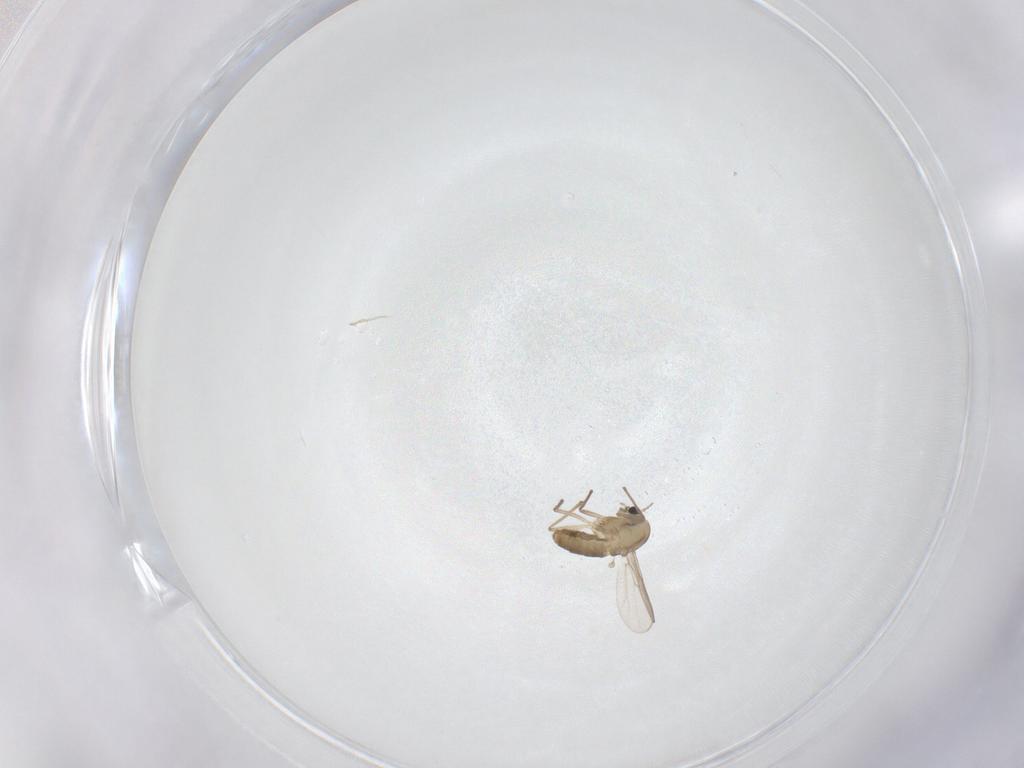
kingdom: Animalia
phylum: Arthropoda
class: Insecta
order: Diptera
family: Chironomidae
